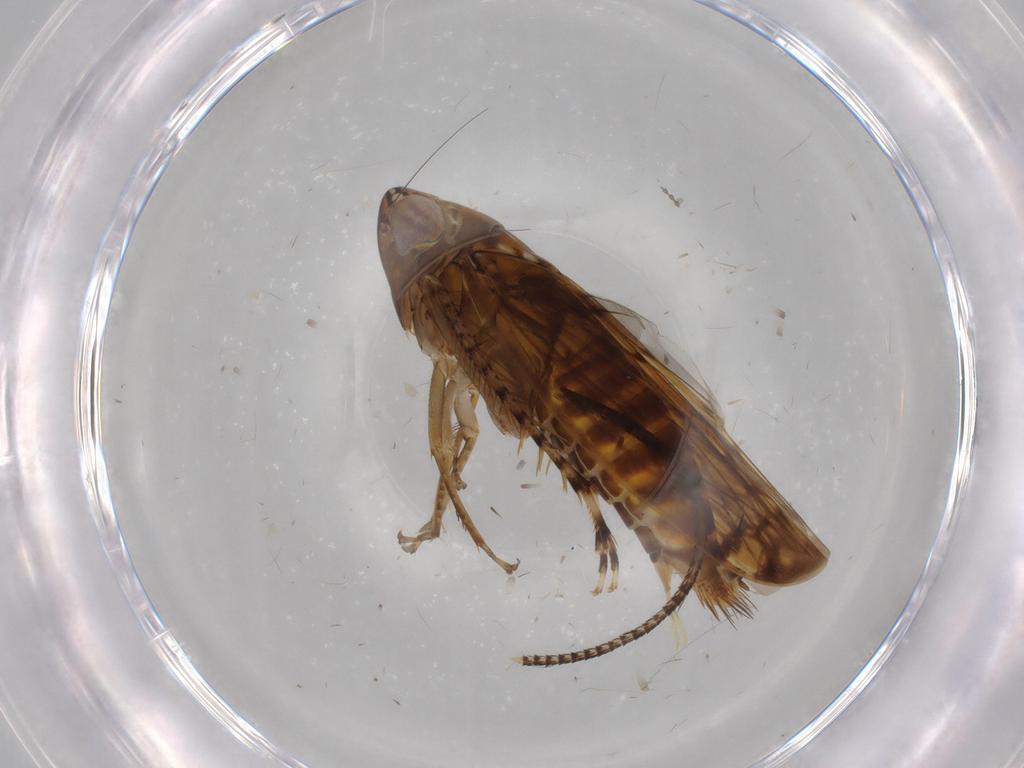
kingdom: Animalia
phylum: Arthropoda
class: Insecta
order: Hemiptera
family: Cicadellidae
